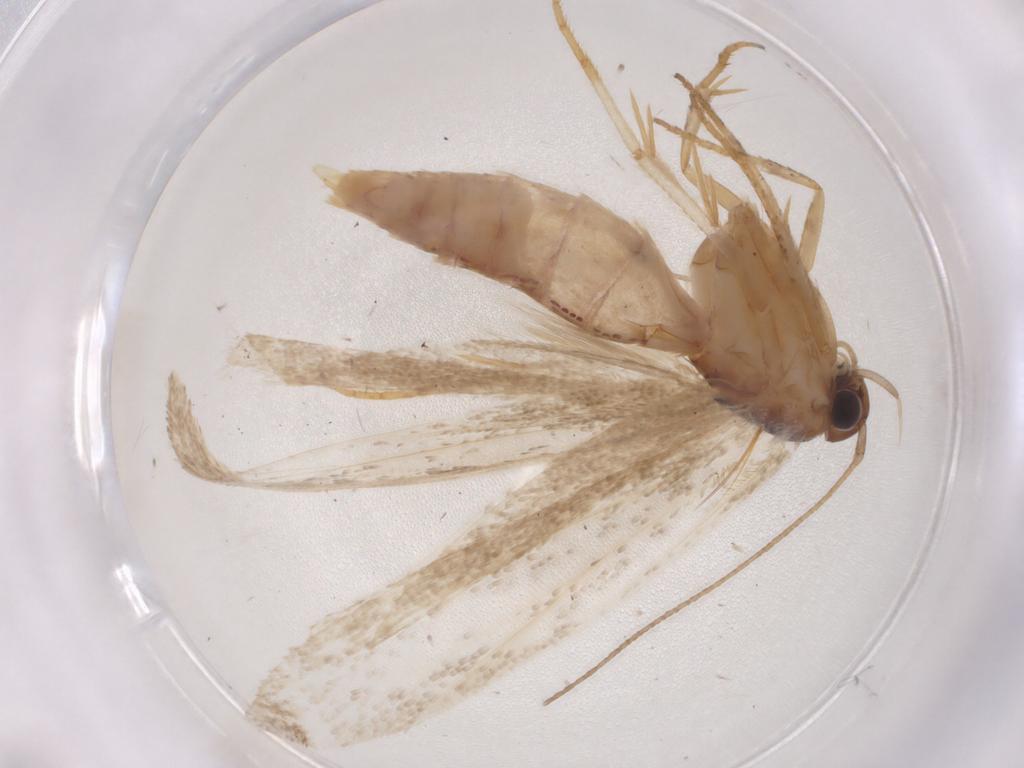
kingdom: Animalia
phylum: Arthropoda
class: Insecta
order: Lepidoptera
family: Gelechiidae
